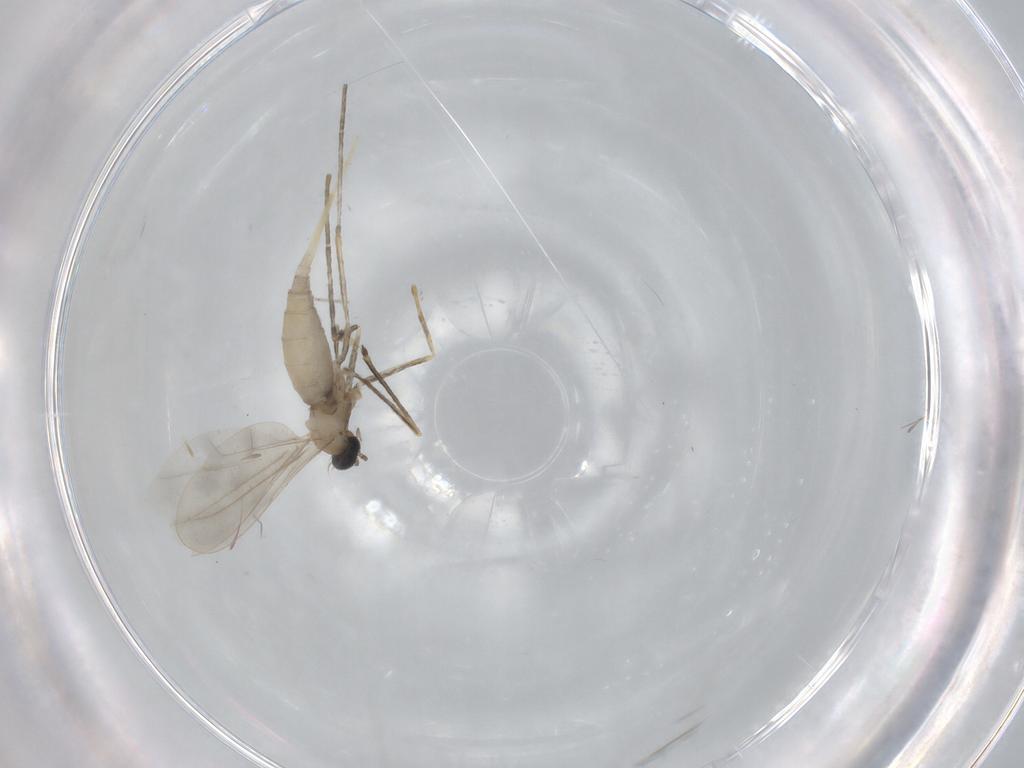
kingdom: Animalia
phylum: Arthropoda
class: Insecta
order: Diptera
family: Cecidomyiidae
